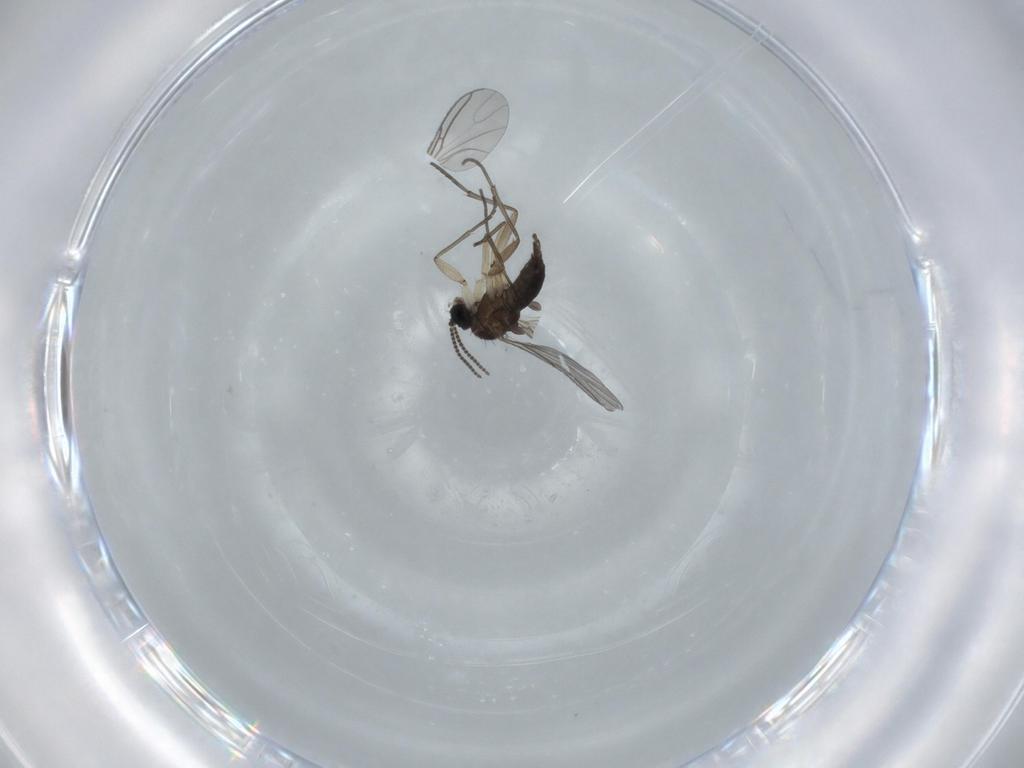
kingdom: Animalia
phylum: Arthropoda
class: Insecta
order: Diptera
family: Sciaridae
